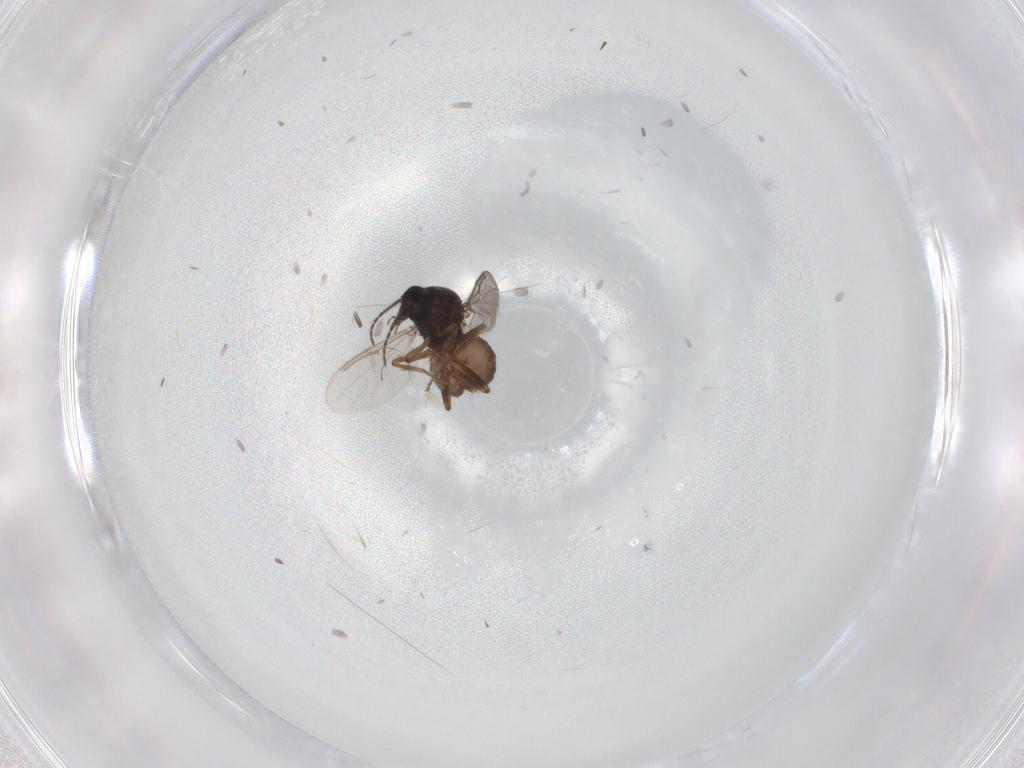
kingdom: Animalia
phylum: Arthropoda
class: Insecta
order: Diptera
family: Ceratopogonidae
